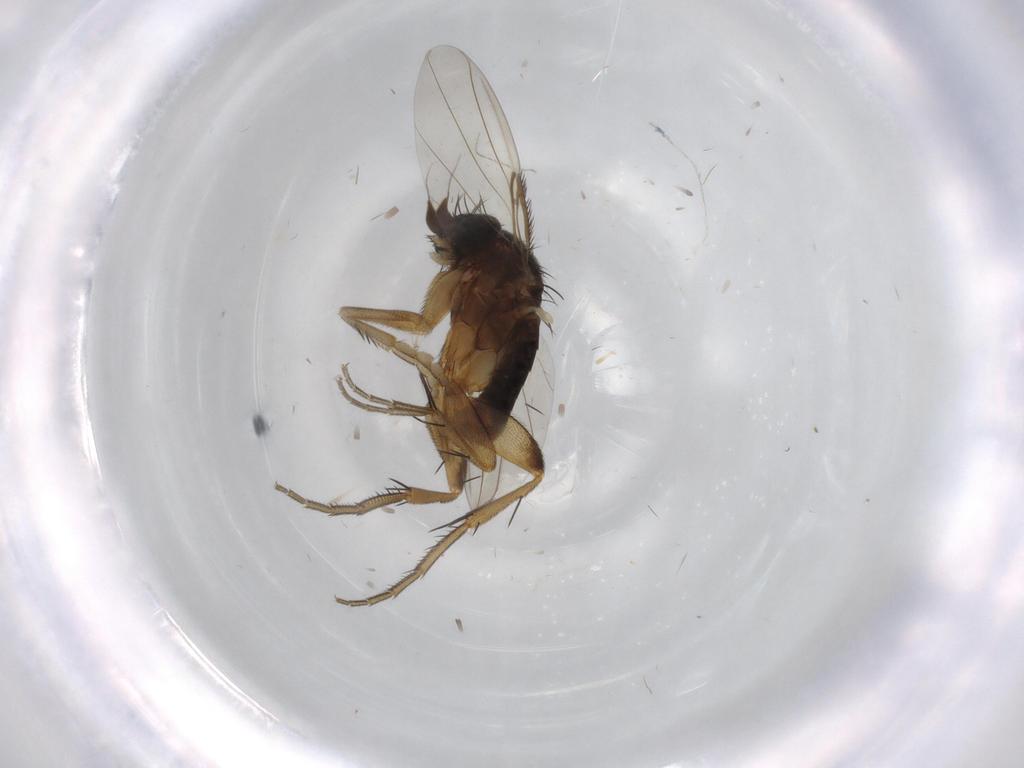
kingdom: Animalia
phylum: Arthropoda
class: Insecta
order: Diptera
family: Phoridae
